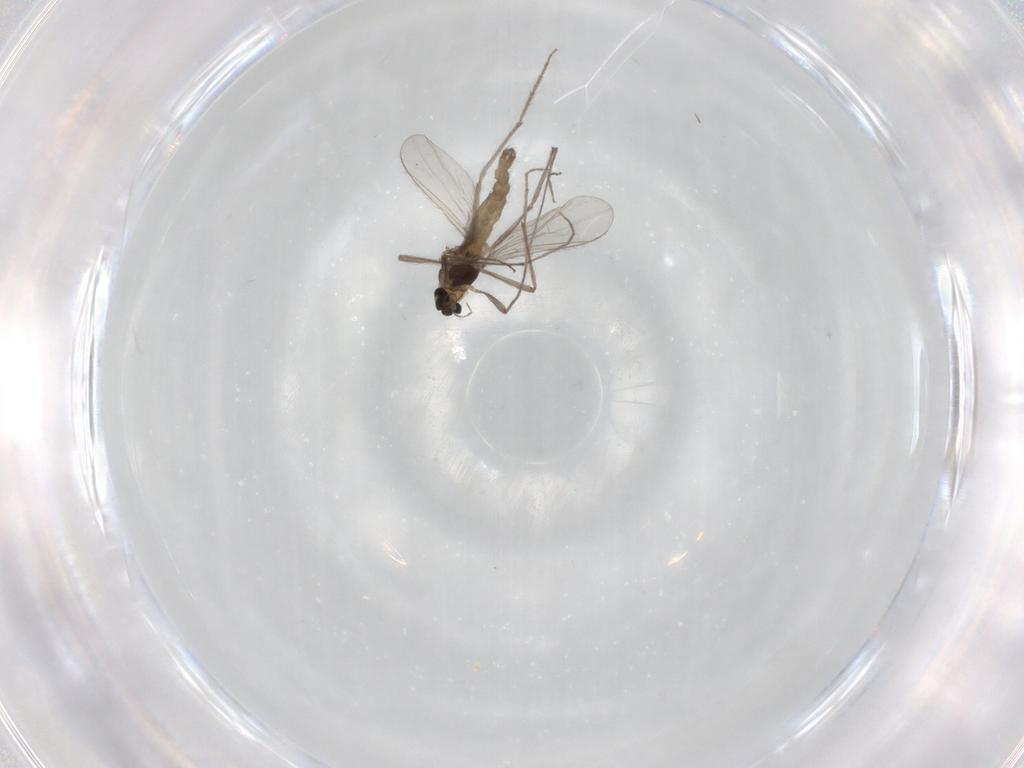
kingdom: Animalia
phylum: Arthropoda
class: Insecta
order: Diptera
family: Chironomidae
